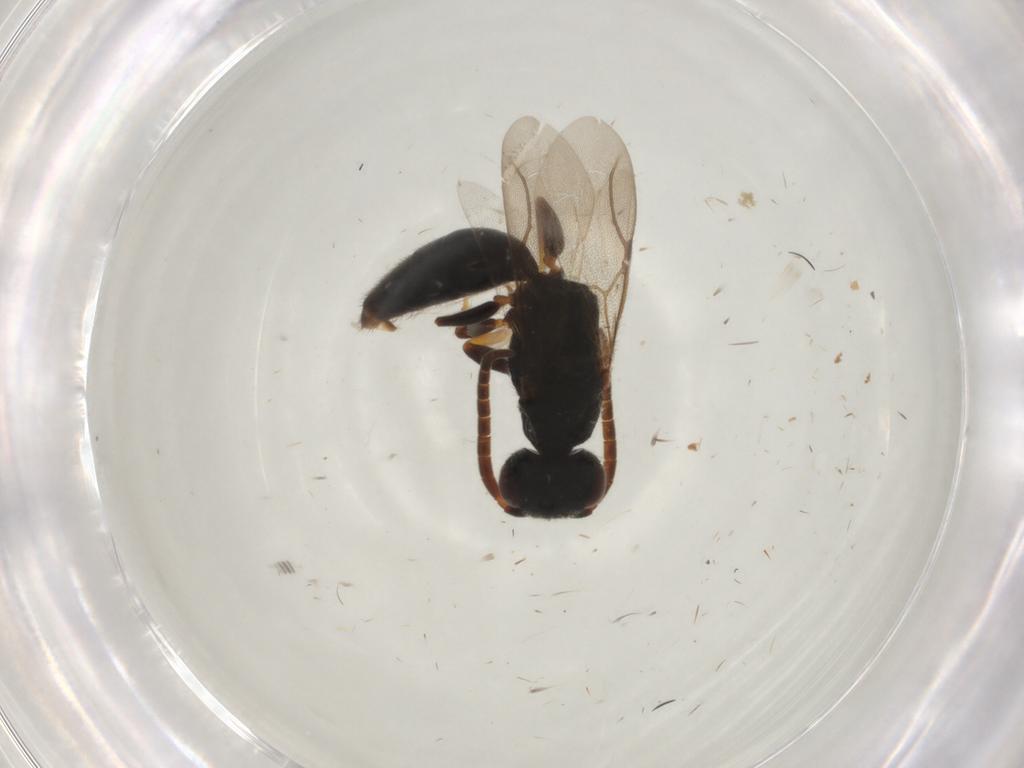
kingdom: Animalia
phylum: Arthropoda
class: Insecta
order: Hymenoptera
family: Bethylidae
